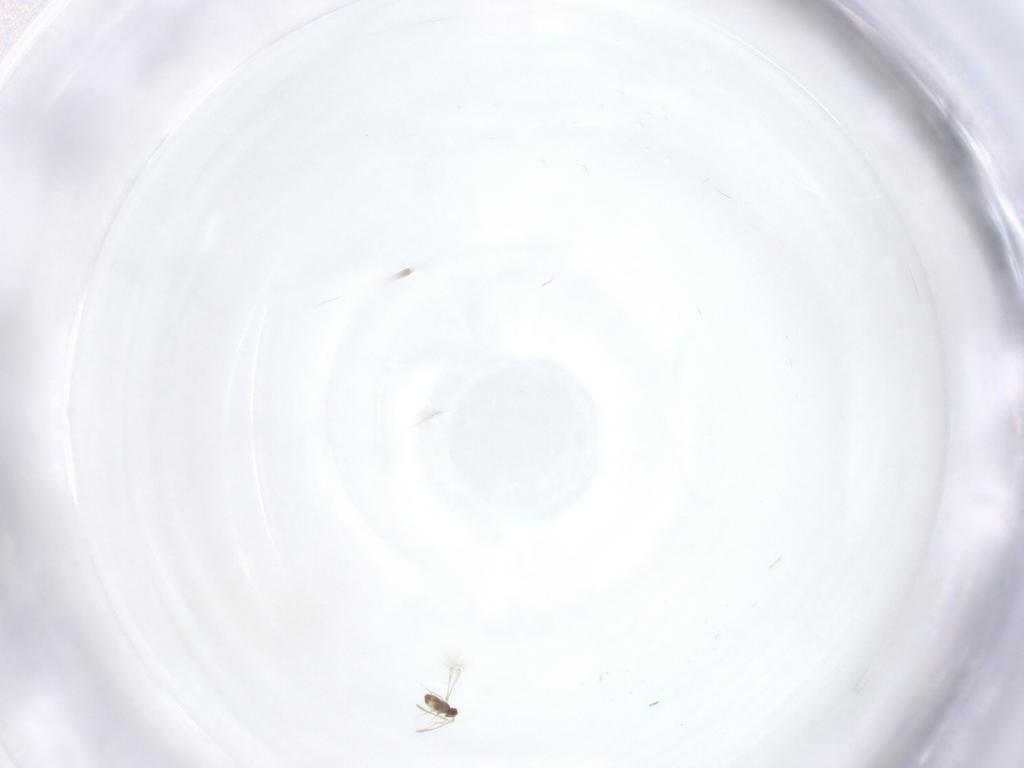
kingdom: Animalia
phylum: Arthropoda
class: Insecta
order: Hymenoptera
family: Mymaridae
